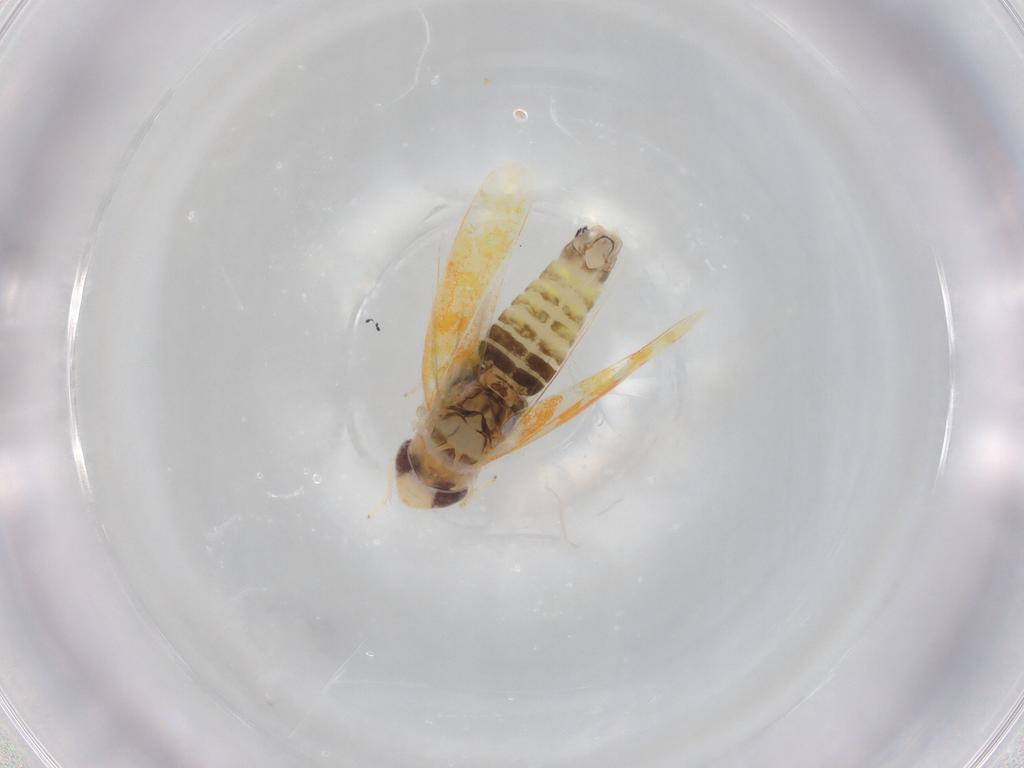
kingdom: Animalia
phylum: Arthropoda
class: Insecta
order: Hemiptera
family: Cicadellidae
